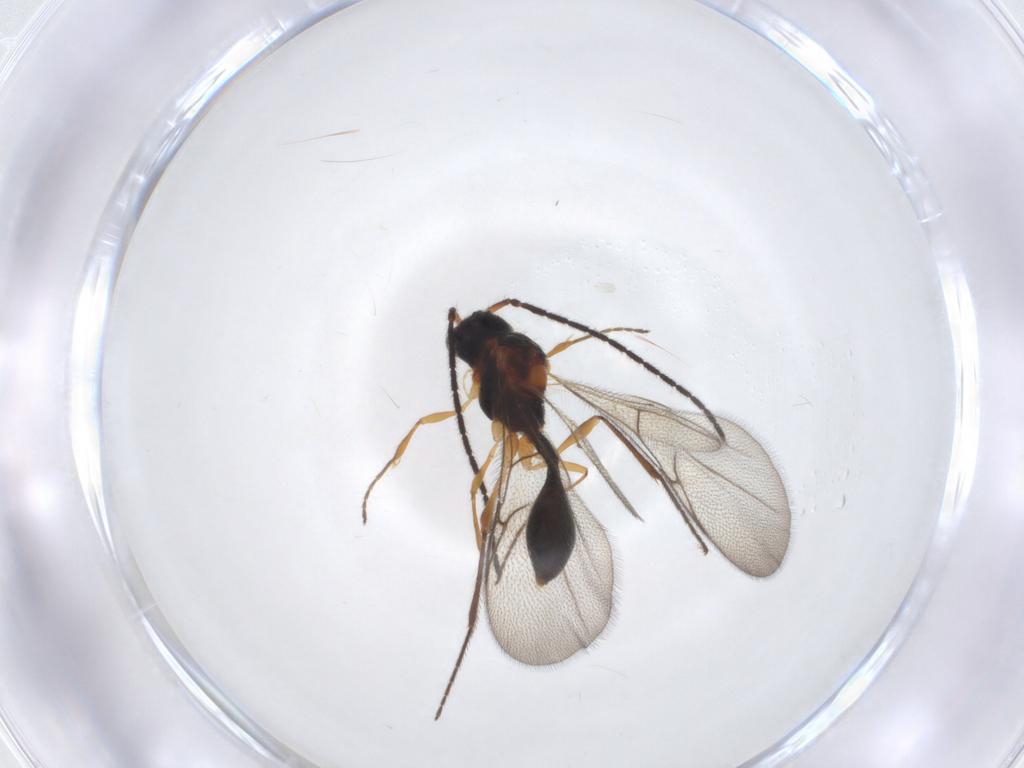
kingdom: Animalia
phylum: Arthropoda
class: Insecta
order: Hymenoptera
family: Diapriidae
